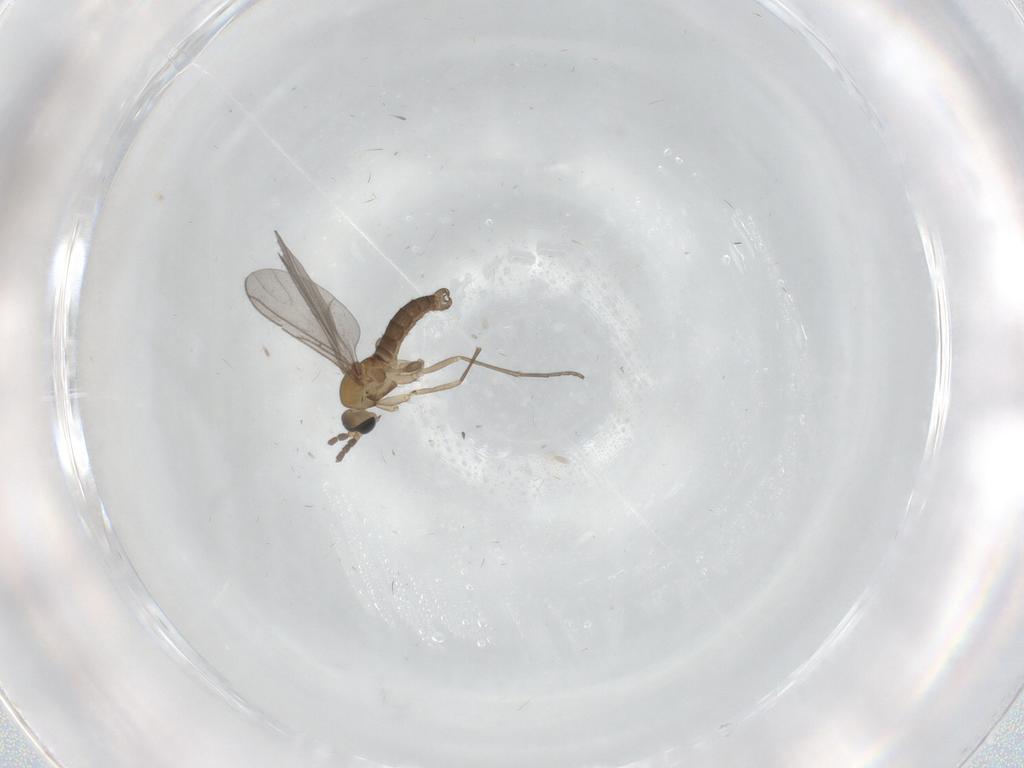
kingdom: Animalia
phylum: Arthropoda
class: Insecta
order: Diptera
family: Sciaridae
